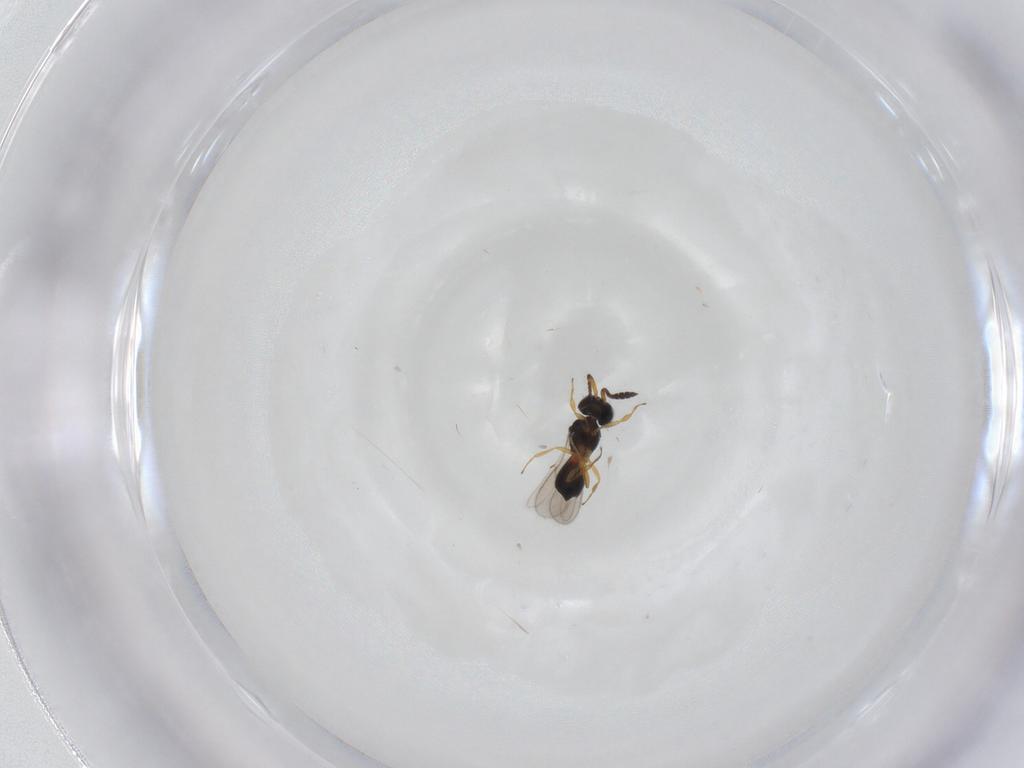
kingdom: Animalia
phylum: Arthropoda
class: Insecta
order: Hymenoptera
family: Scelionidae
